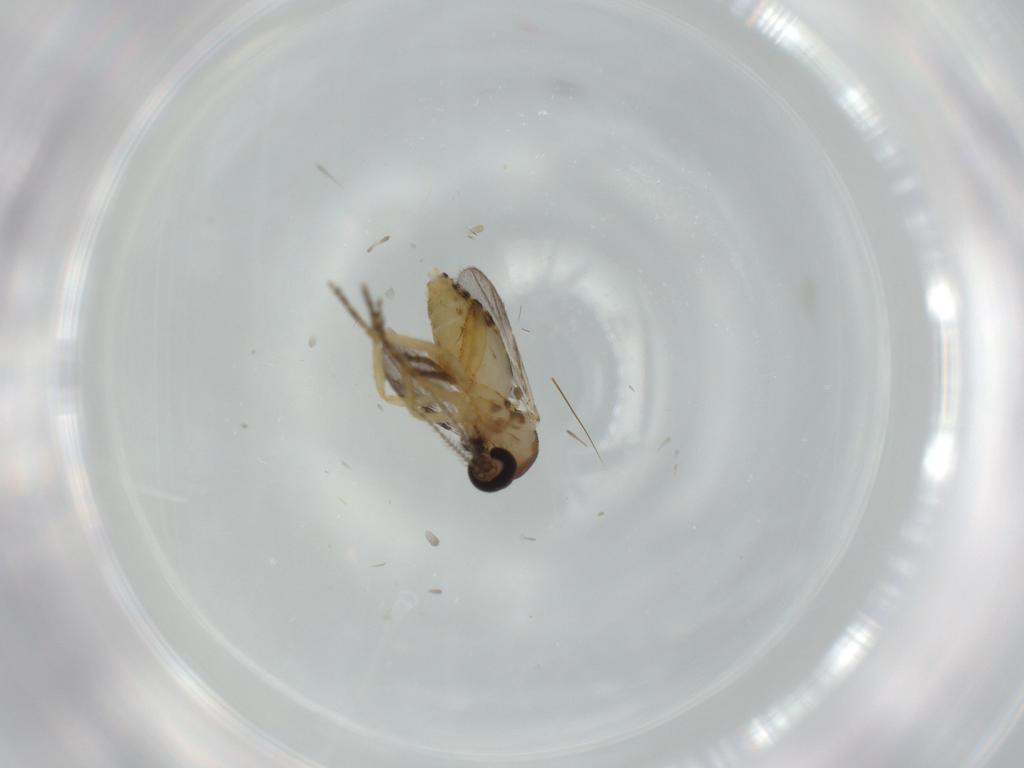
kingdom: Animalia
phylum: Arthropoda
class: Insecta
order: Diptera
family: Ceratopogonidae
